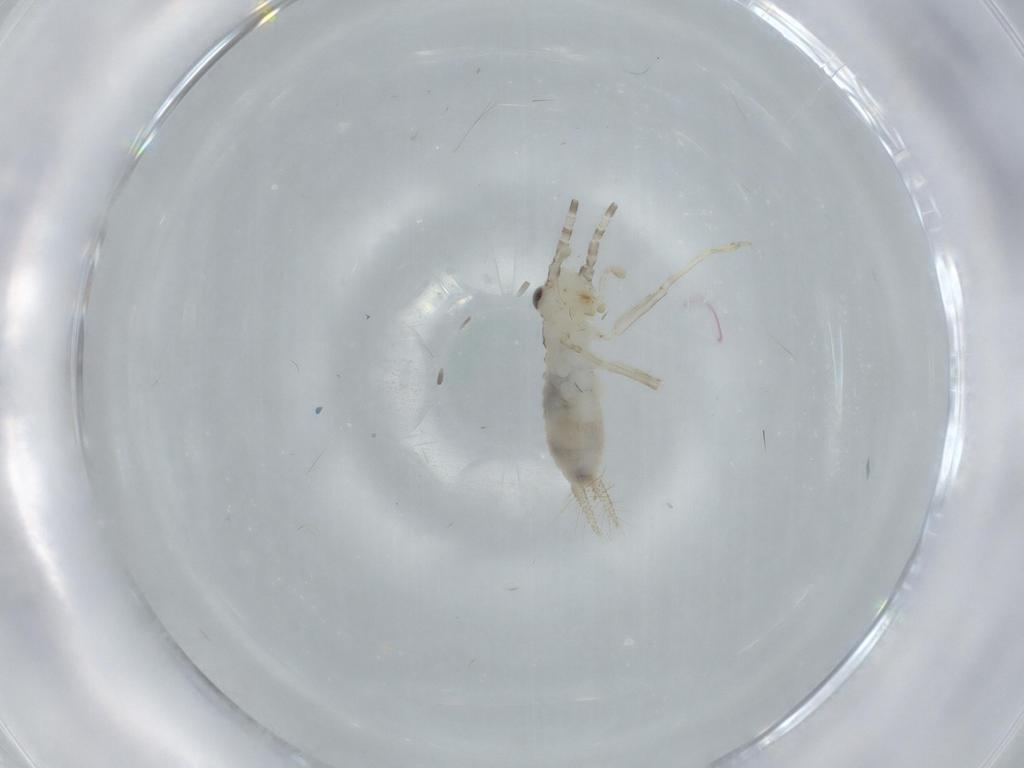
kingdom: Animalia
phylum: Arthropoda
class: Insecta
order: Orthoptera
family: Trigonidiidae
